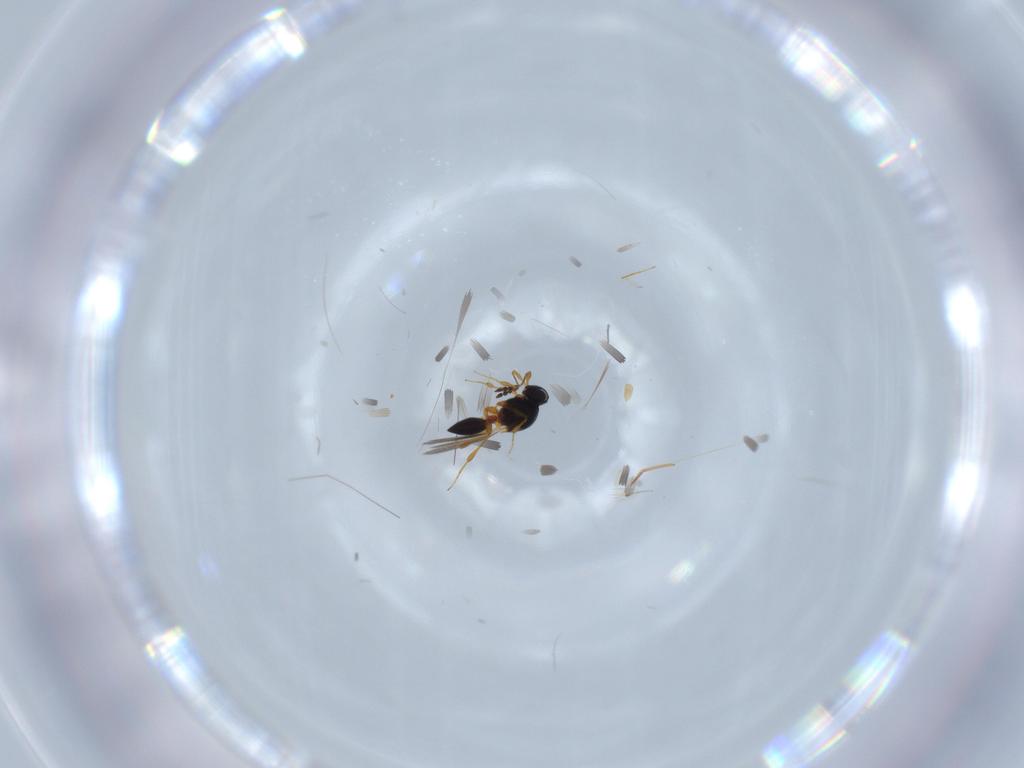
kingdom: Animalia
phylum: Arthropoda
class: Insecta
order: Hymenoptera
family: Platygastridae
